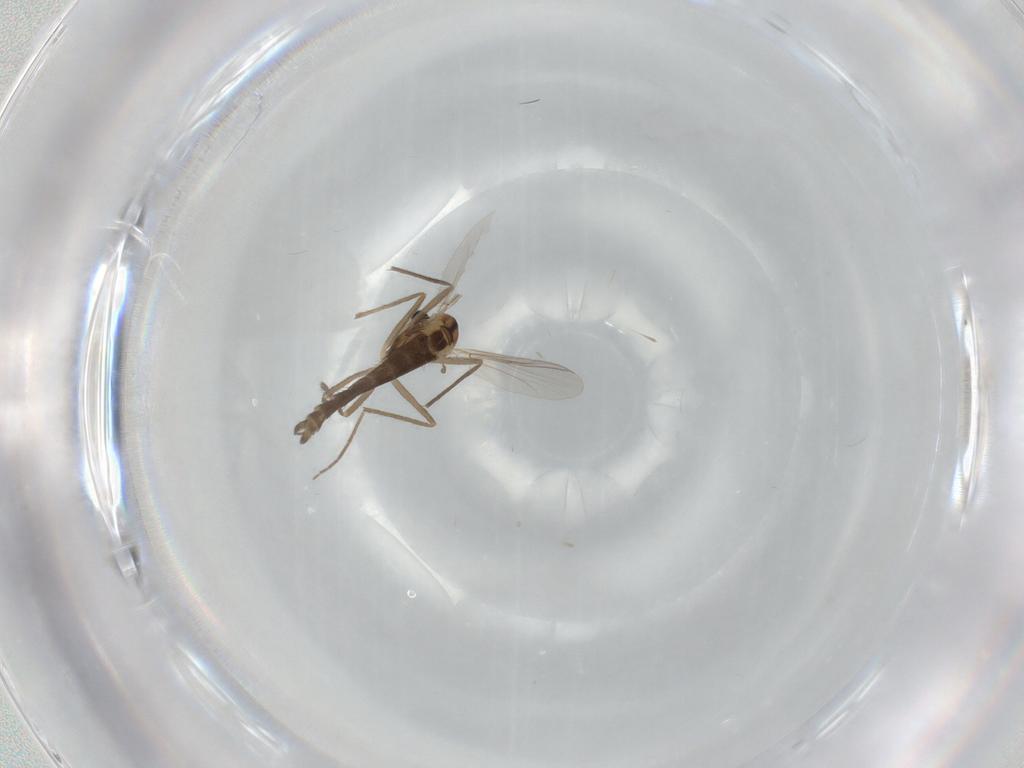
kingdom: Animalia
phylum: Arthropoda
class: Insecta
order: Diptera
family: Chironomidae
